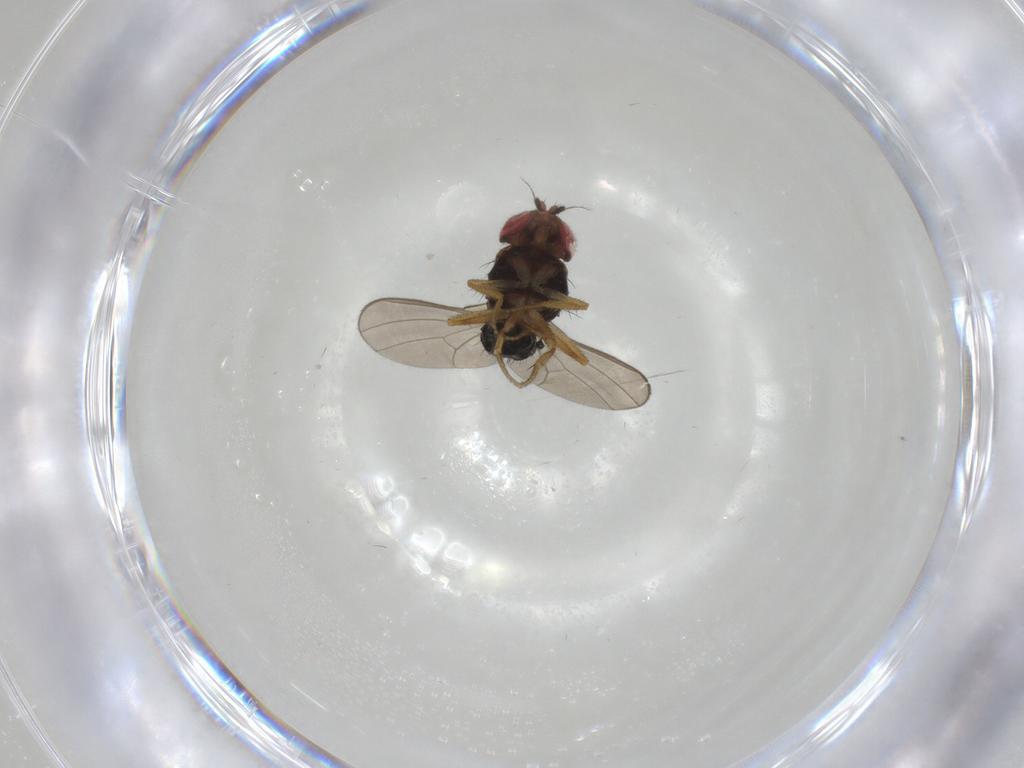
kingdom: Animalia
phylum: Arthropoda
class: Insecta
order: Diptera
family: Drosophilidae
